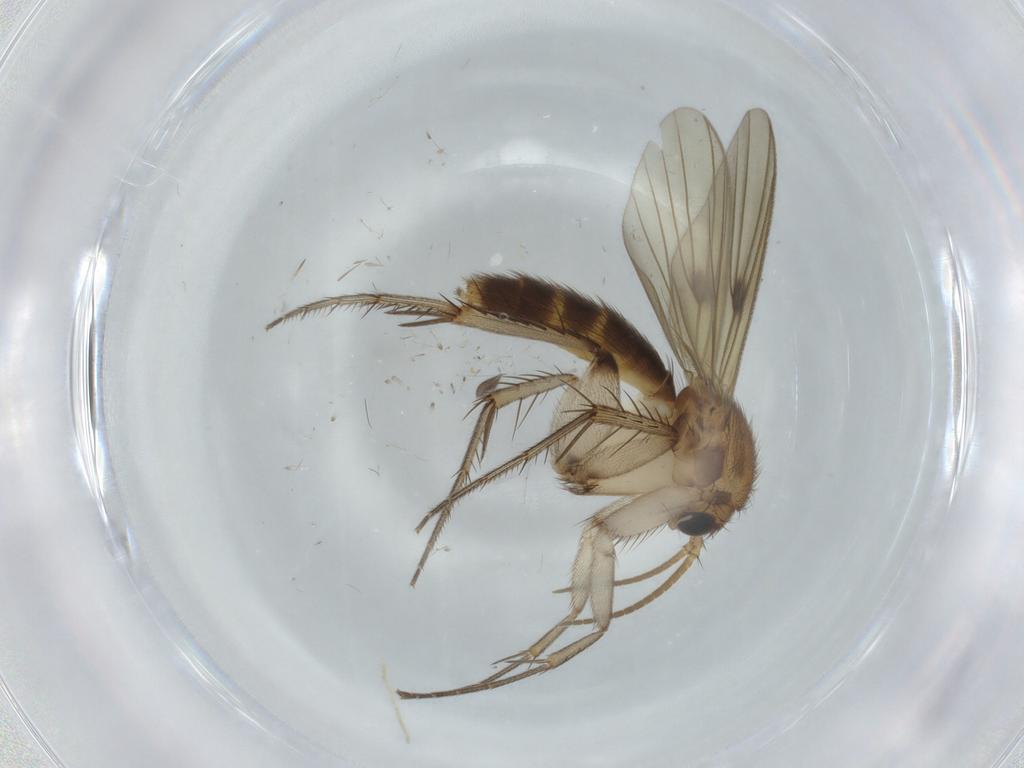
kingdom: Animalia
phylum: Arthropoda
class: Insecta
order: Diptera
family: Mycetophilidae
